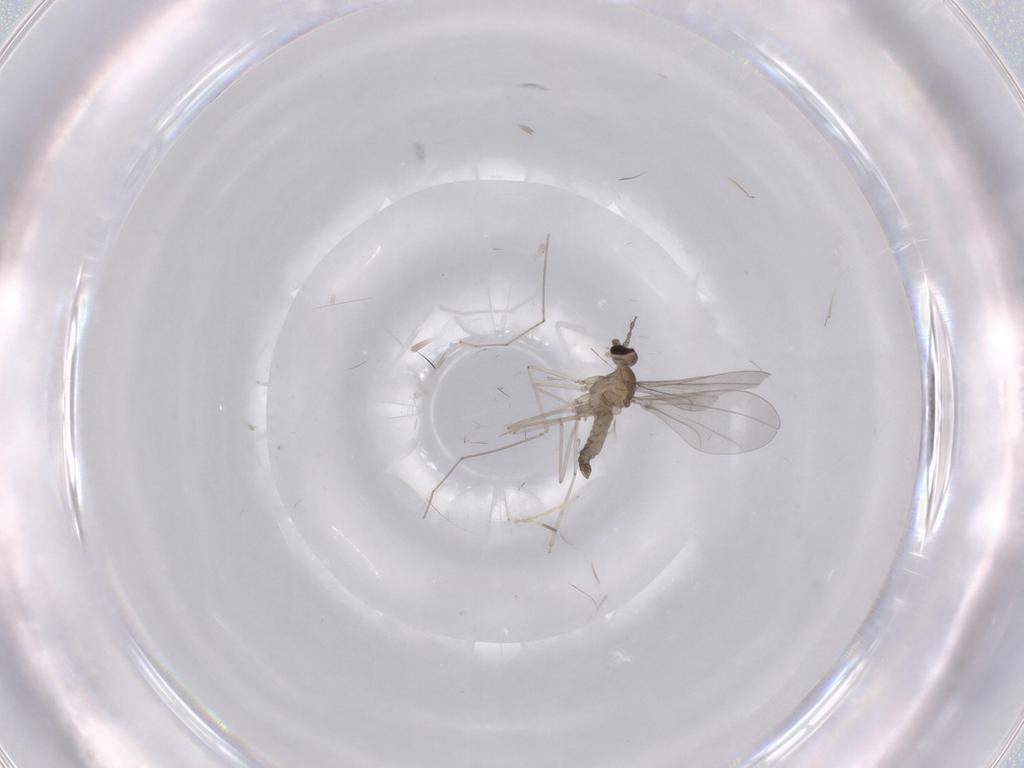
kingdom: Animalia
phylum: Arthropoda
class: Insecta
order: Diptera
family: Cecidomyiidae
